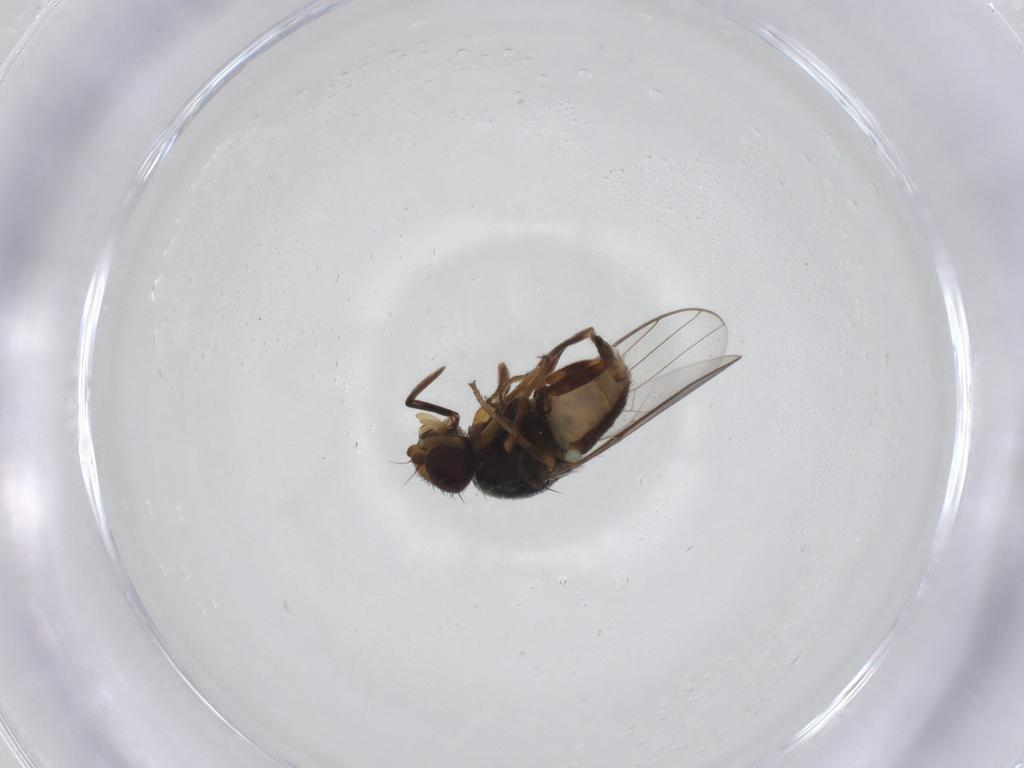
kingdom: Animalia
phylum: Arthropoda
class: Insecta
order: Diptera
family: Chloropidae
